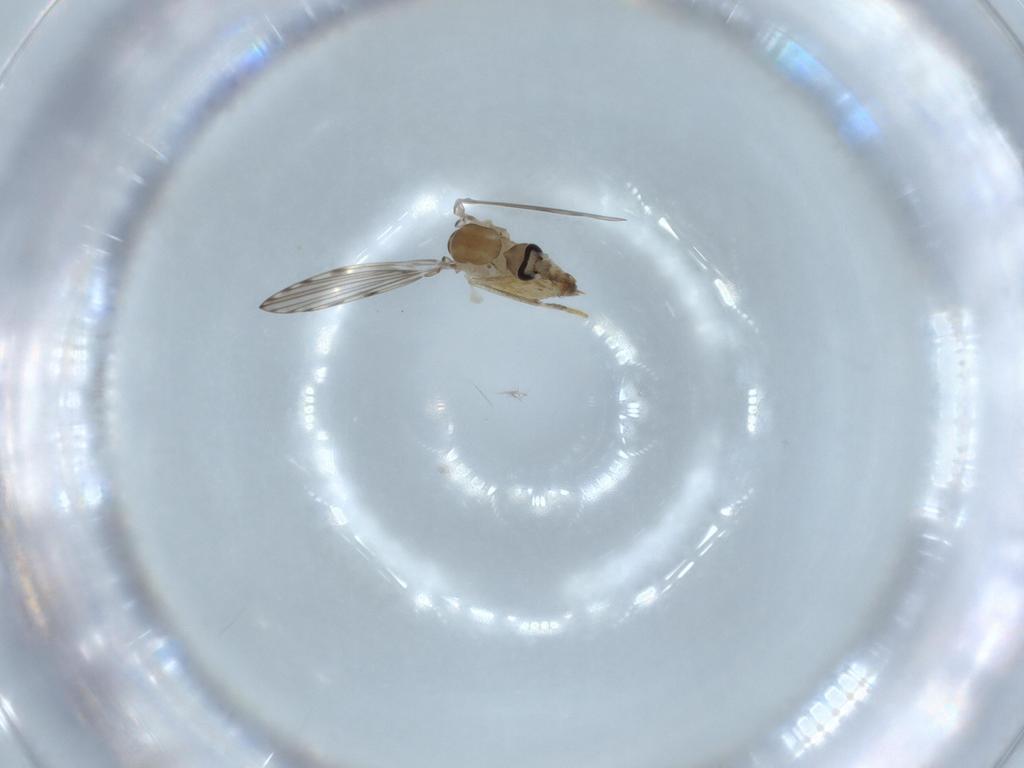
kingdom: Animalia
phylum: Arthropoda
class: Insecta
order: Diptera
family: Psychodidae
